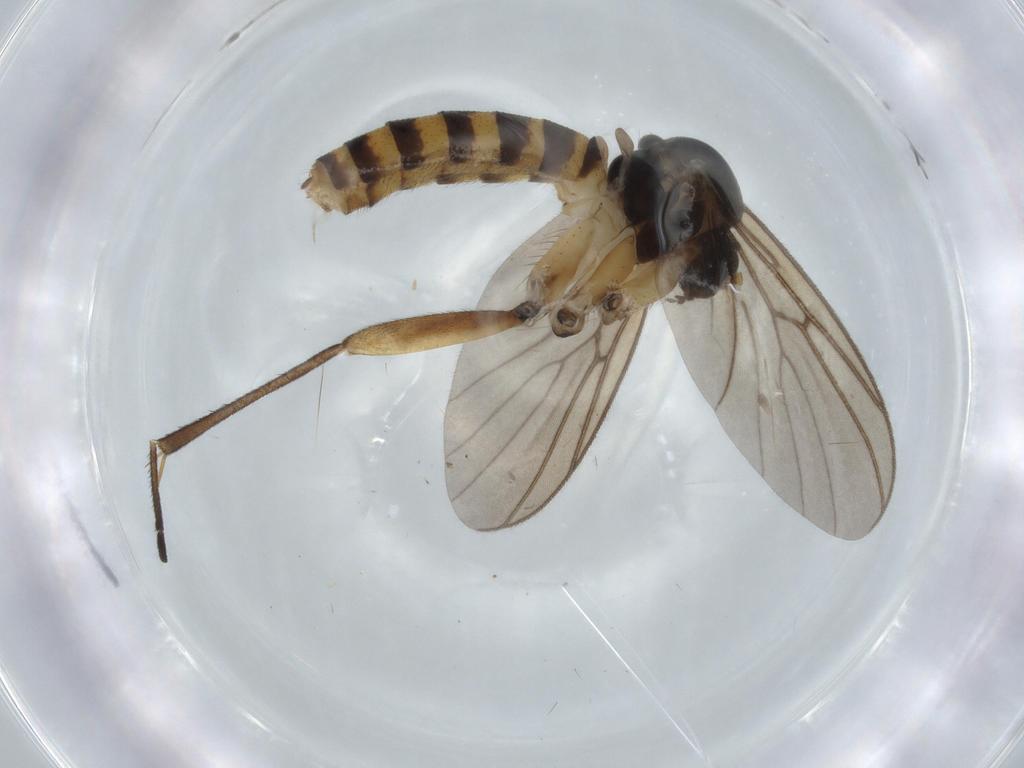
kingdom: Animalia
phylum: Arthropoda
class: Insecta
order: Diptera
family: Mycetophilidae
